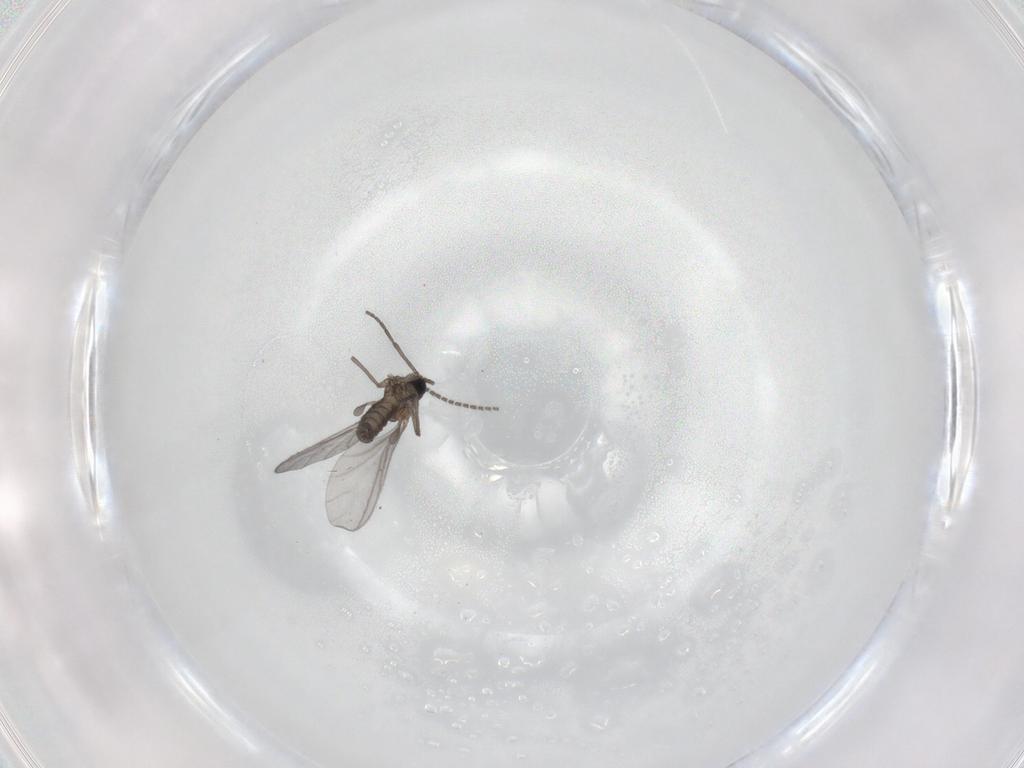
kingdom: Animalia
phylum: Arthropoda
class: Insecta
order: Diptera
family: Sciaridae
